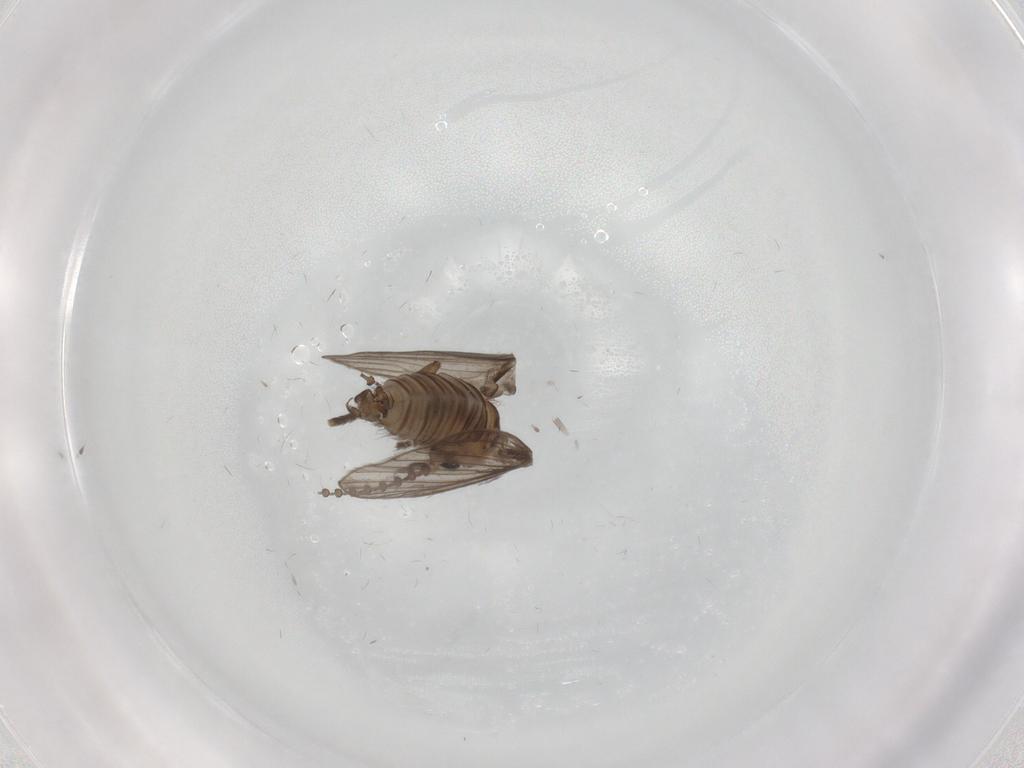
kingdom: Animalia
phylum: Arthropoda
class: Insecta
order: Diptera
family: Psychodidae
